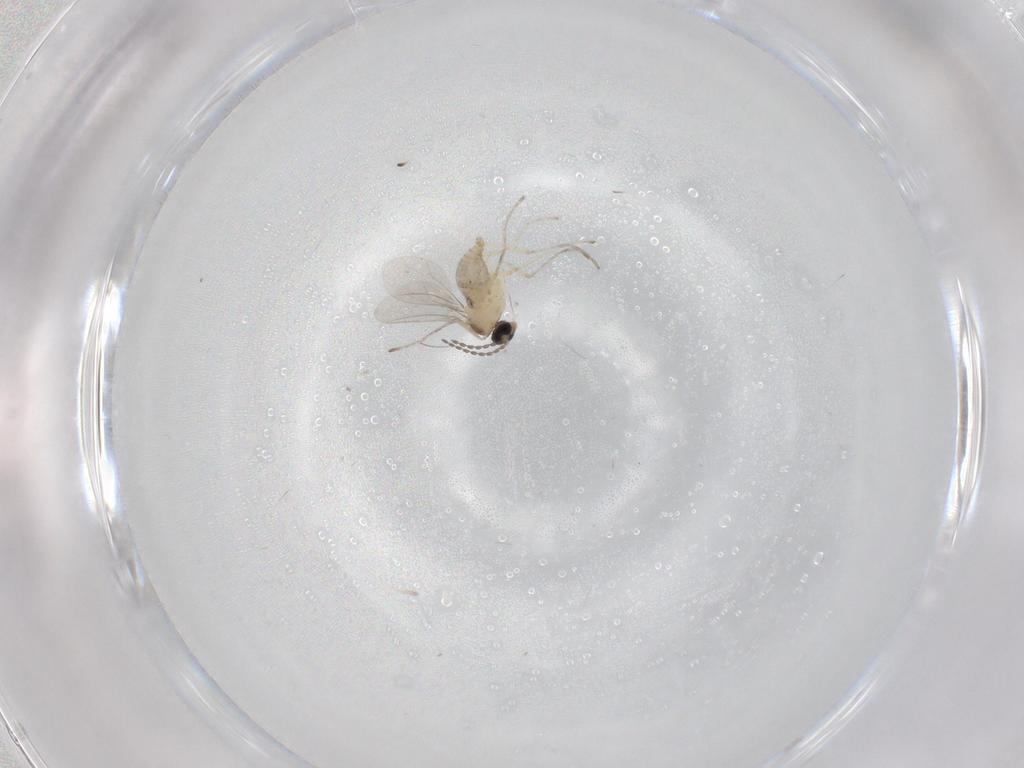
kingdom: Animalia
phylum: Arthropoda
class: Insecta
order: Diptera
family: Cecidomyiidae
